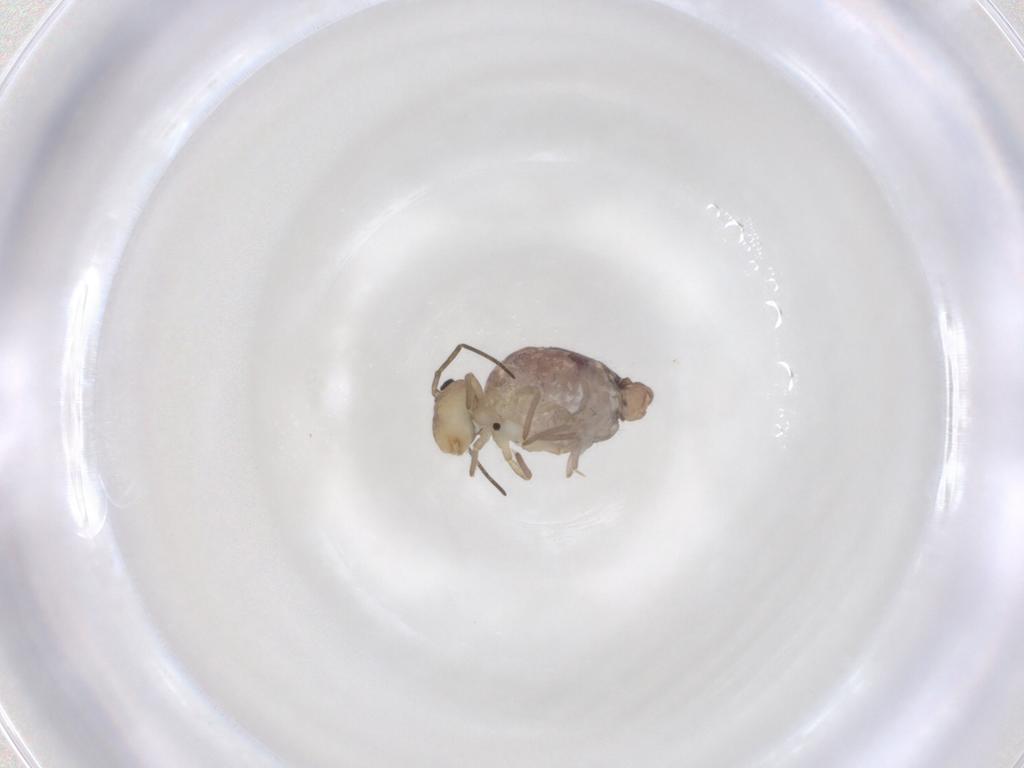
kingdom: Animalia
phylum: Arthropoda
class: Collembola
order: Symphypleona
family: Sminthuridae
